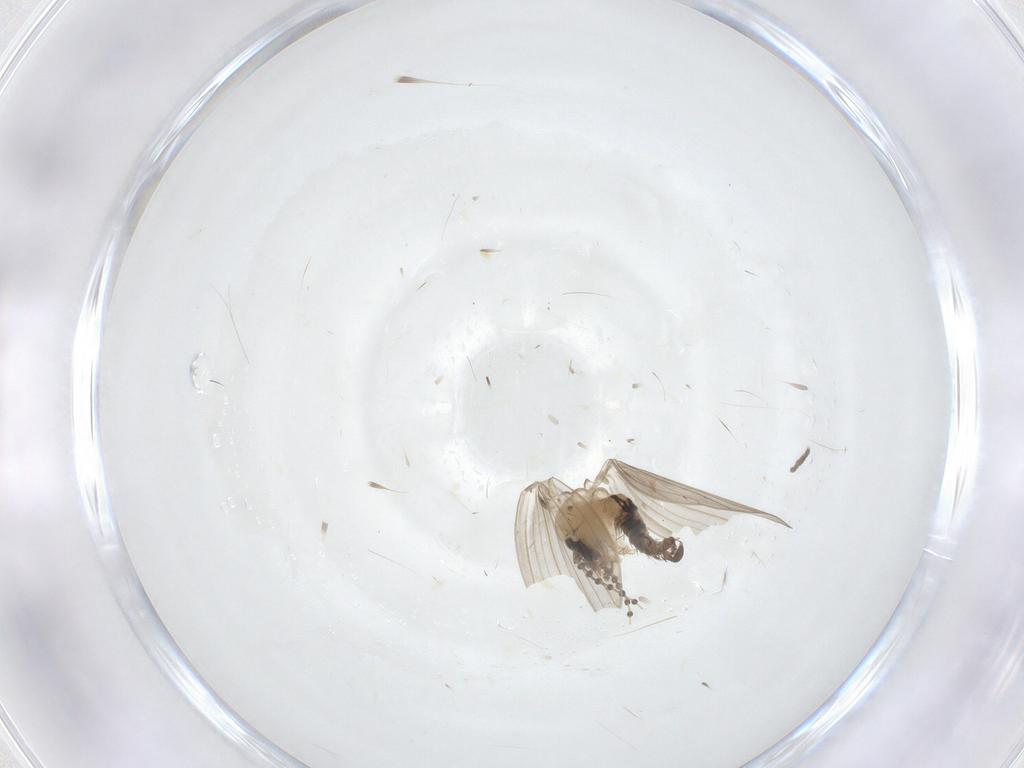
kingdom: Animalia
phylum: Arthropoda
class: Insecta
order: Diptera
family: Psychodidae
